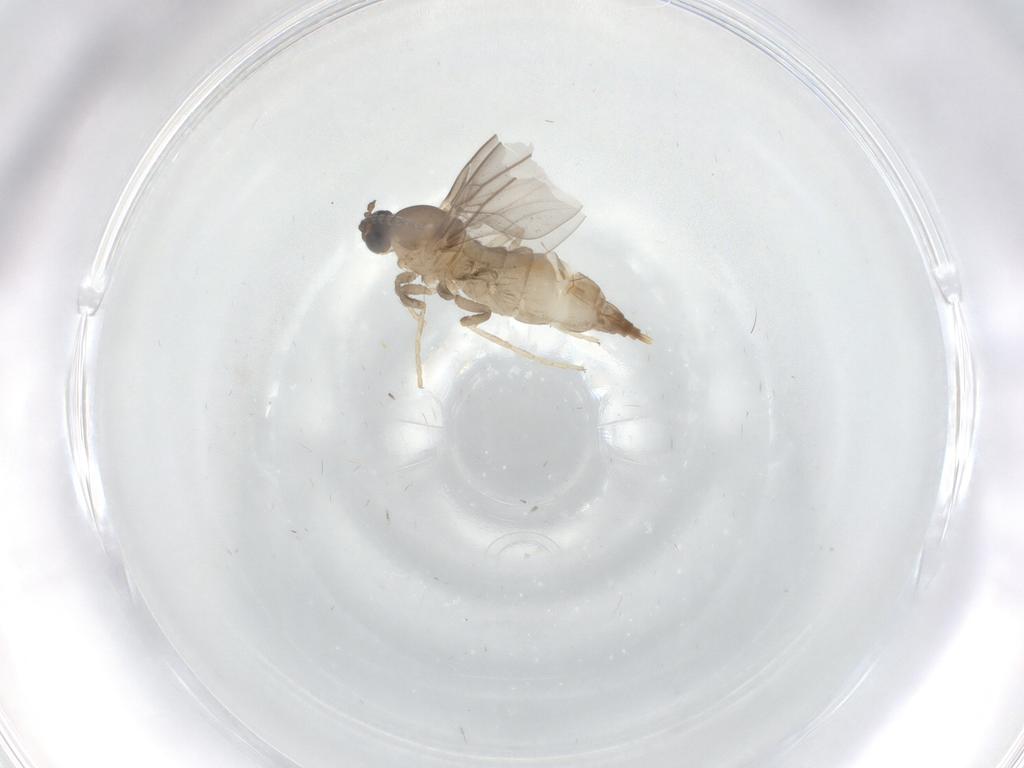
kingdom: Animalia
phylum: Arthropoda
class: Insecta
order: Diptera
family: Cecidomyiidae
